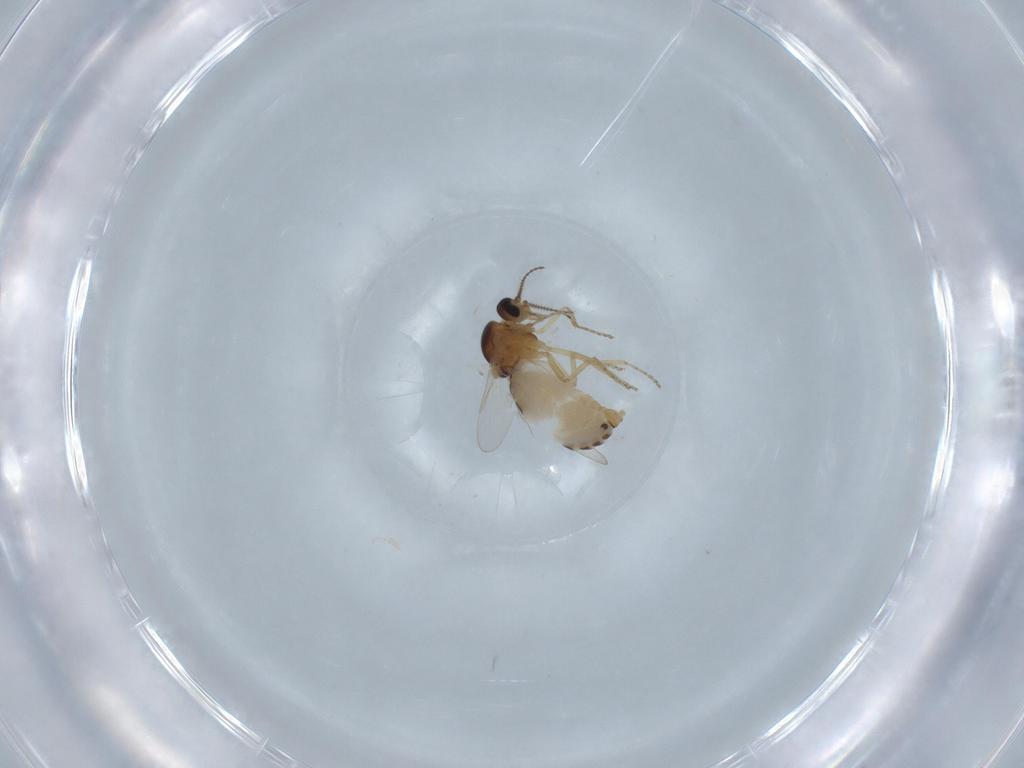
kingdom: Animalia
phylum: Arthropoda
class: Insecta
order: Diptera
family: Ceratopogonidae
